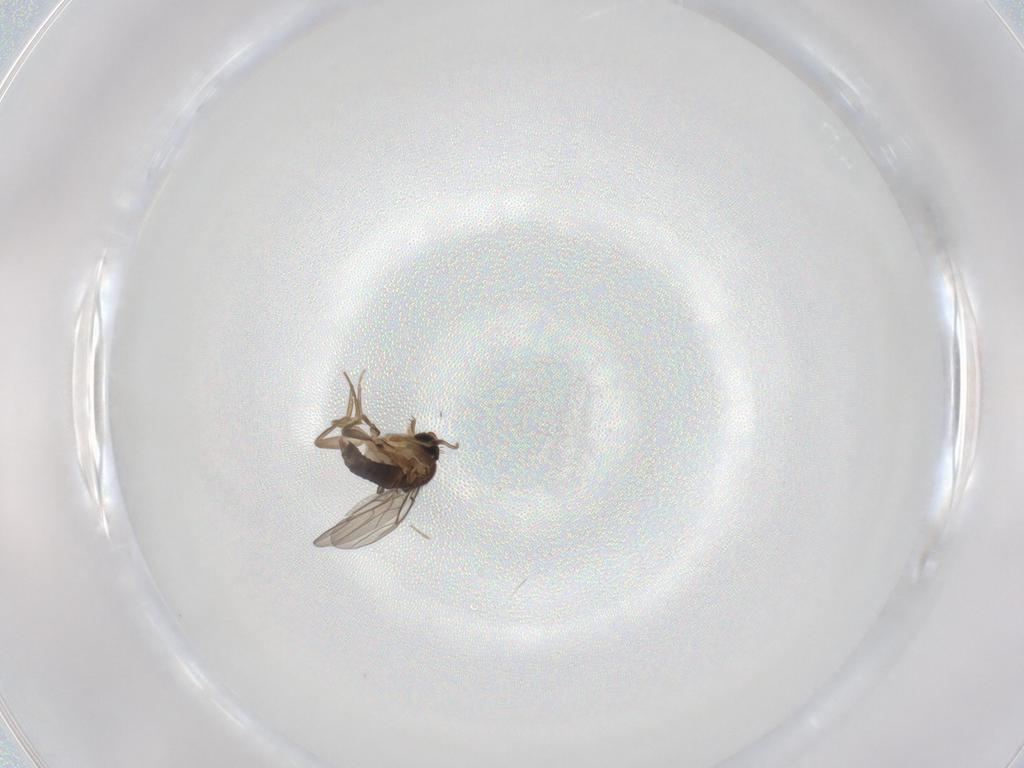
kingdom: Animalia
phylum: Arthropoda
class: Insecta
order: Diptera
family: Phoridae
